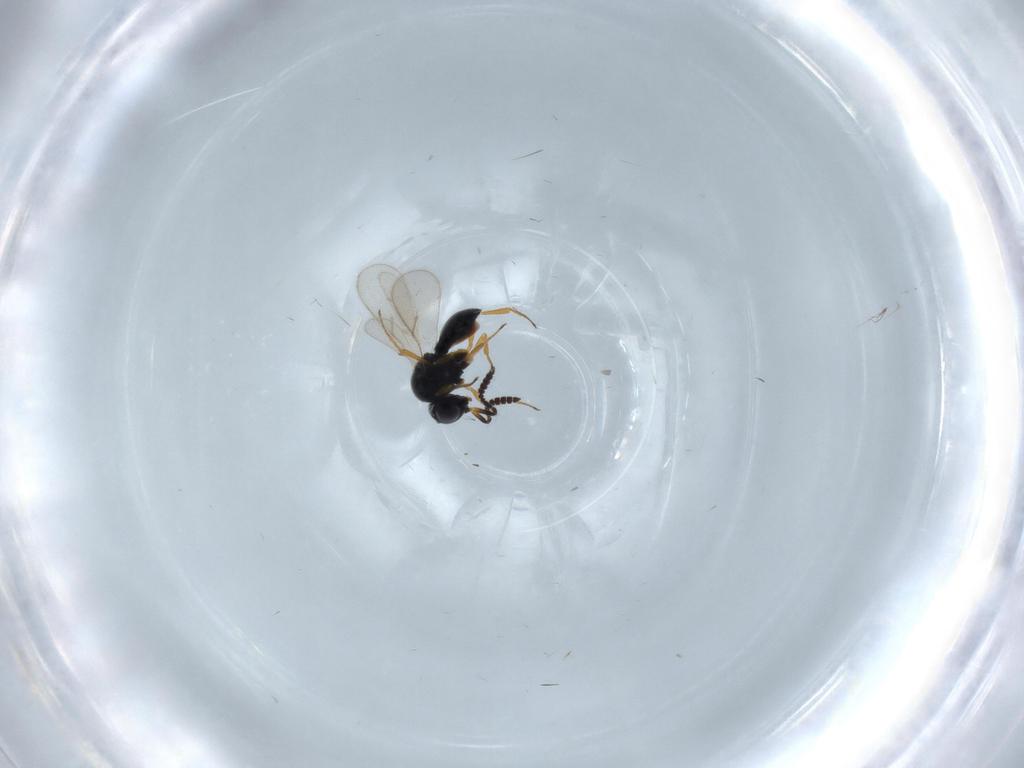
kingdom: Animalia
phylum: Arthropoda
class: Insecta
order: Hymenoptera
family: Scelionidae
